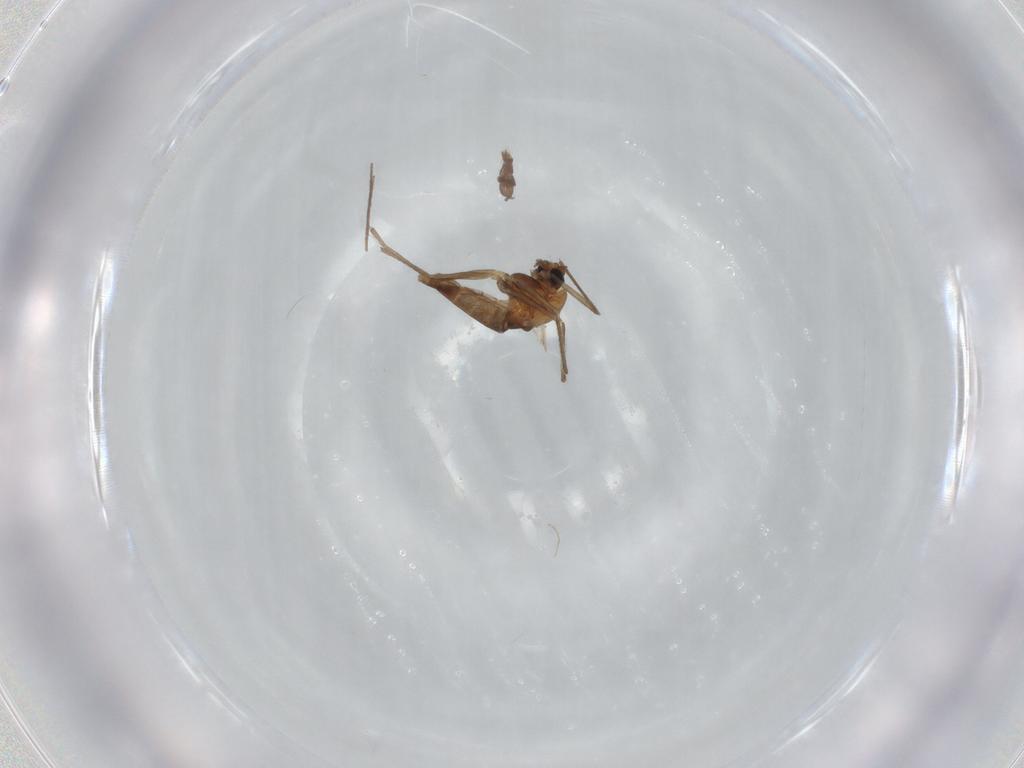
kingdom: Animalia
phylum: Arthropoda
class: Insecta
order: Diptera
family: Chironomidae
